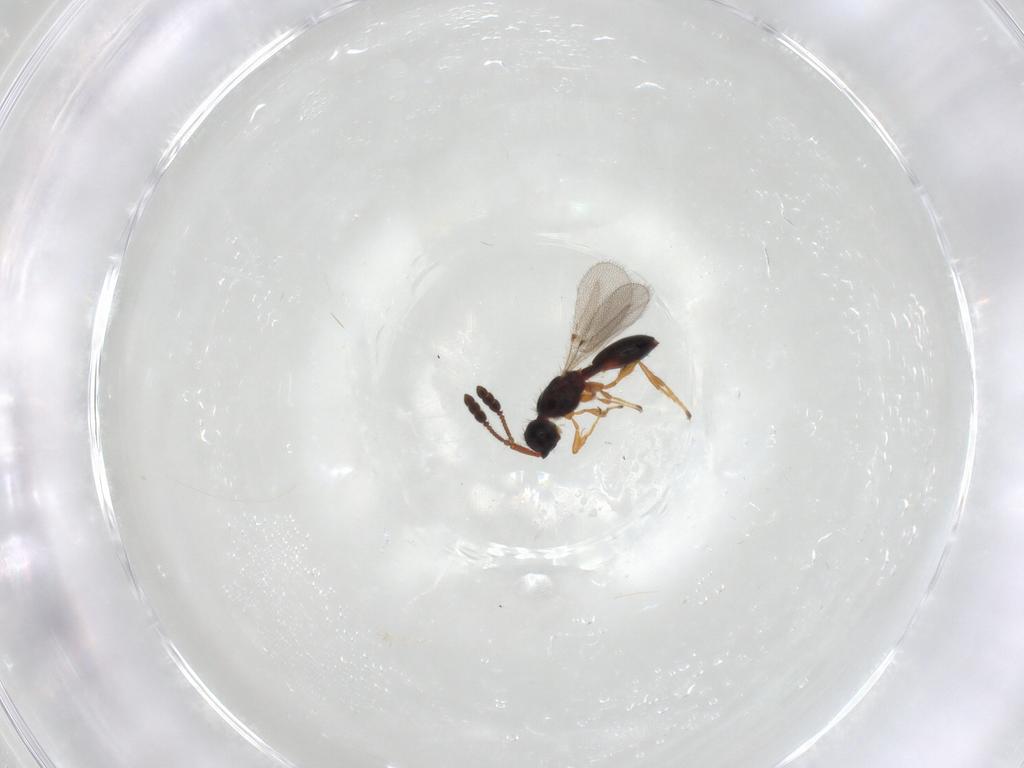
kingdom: Animalia
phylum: Arthropoda
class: Insecta
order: Hymenoptera
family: Diapriidae
